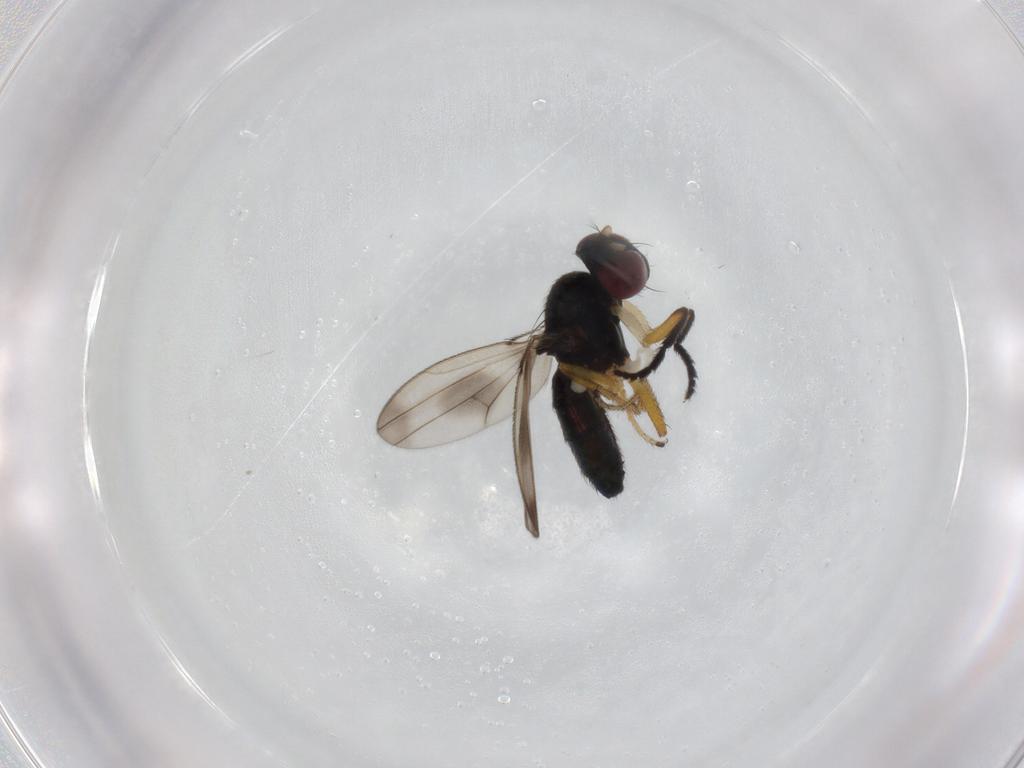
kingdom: Animalia
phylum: Arthropoda
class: Insecta
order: Diptera
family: Ephydridae
